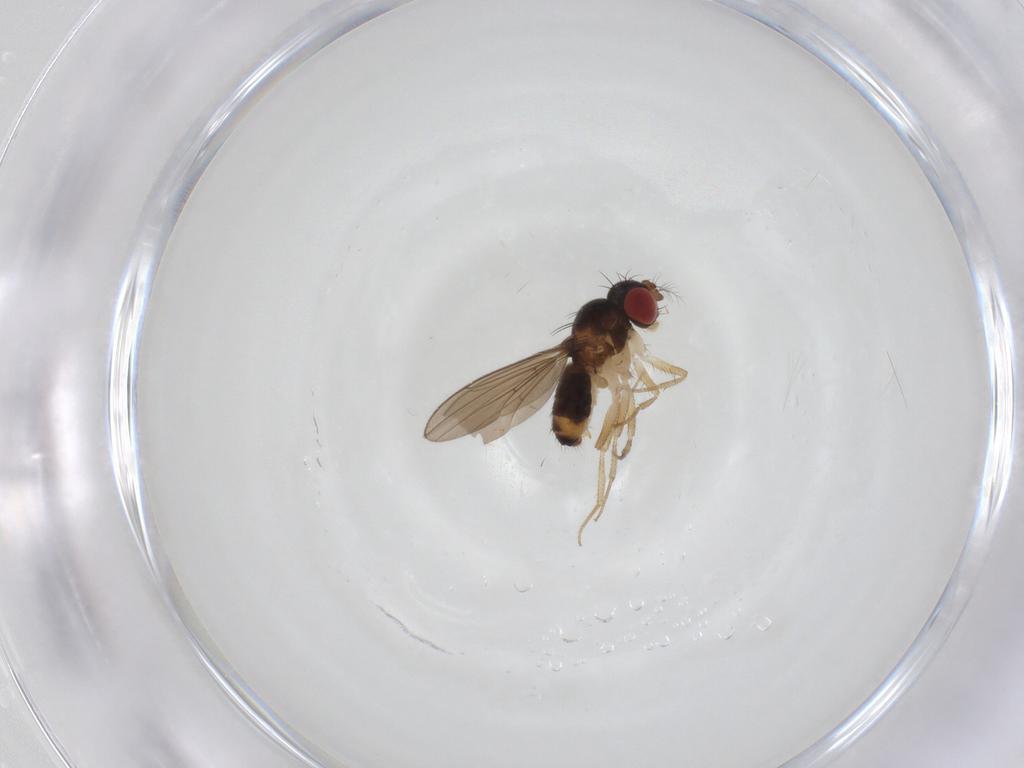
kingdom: Animalia
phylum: Arthropoda
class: Insecta
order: Diptera
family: Drosophilidae
